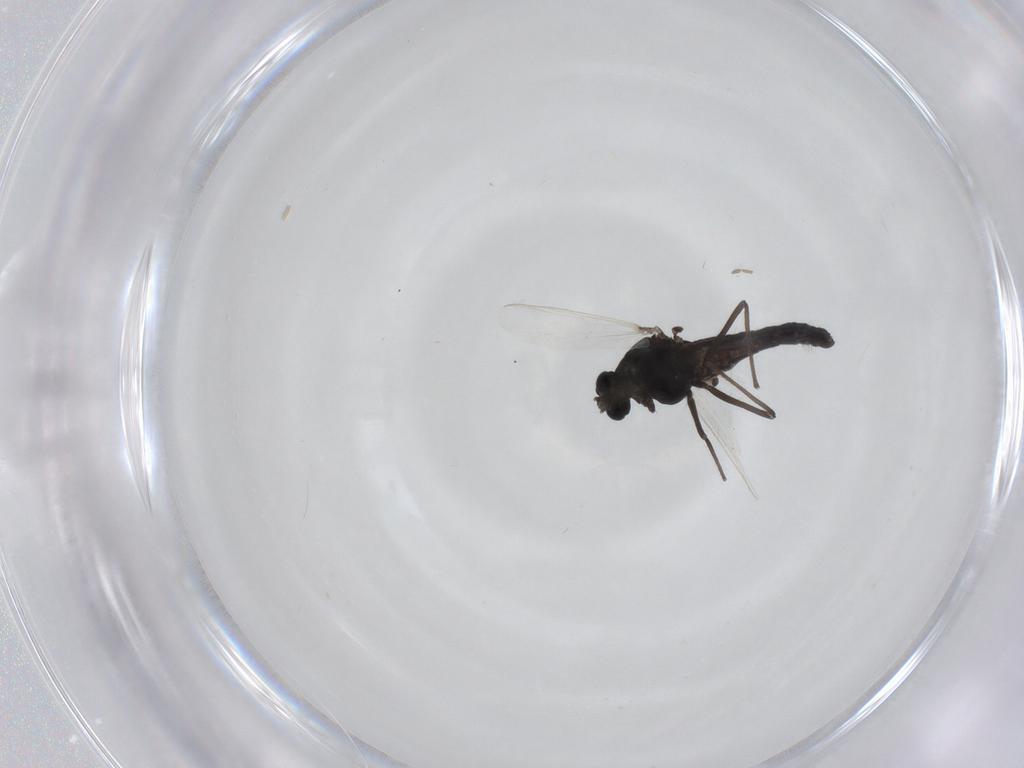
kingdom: Animalia
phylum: Arthropoda
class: Insecta
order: Diptera
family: Chironomidae
